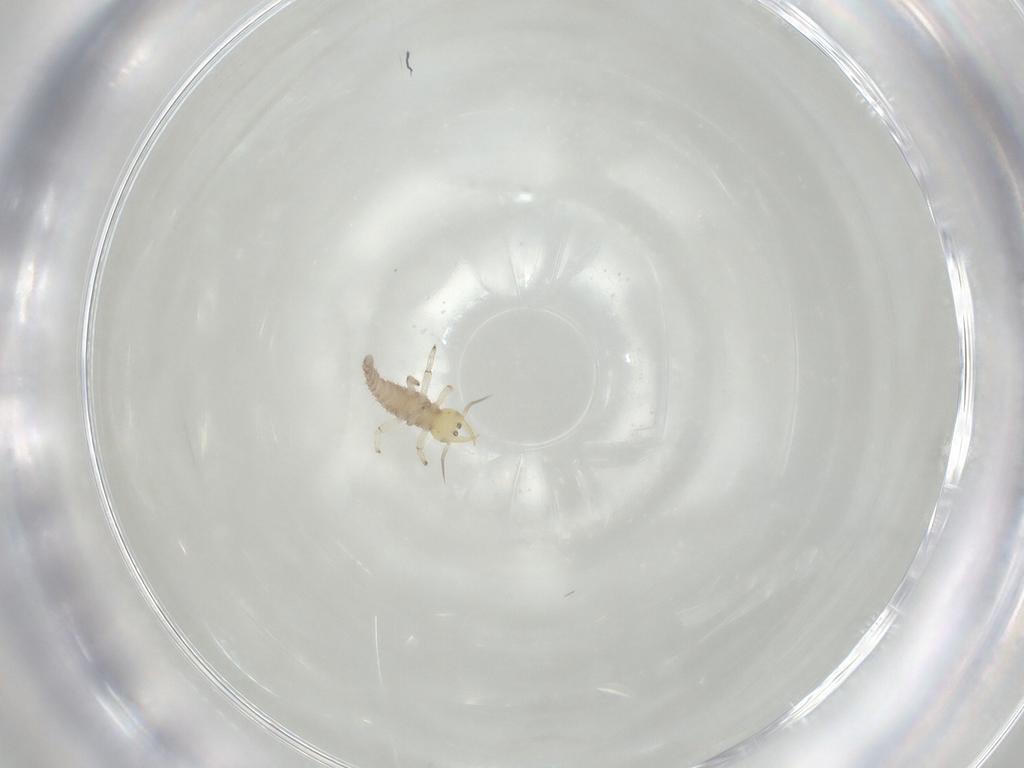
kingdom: Animalia
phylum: Arthropoda
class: Insecta
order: Neuroptera
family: Hemerobiidae
